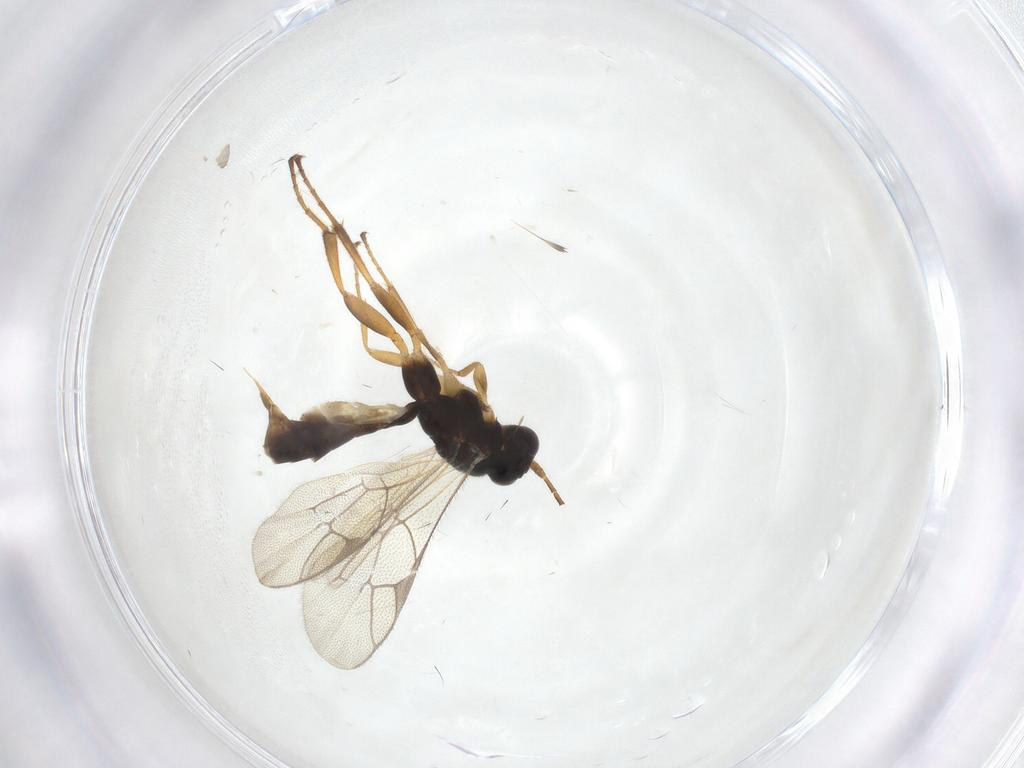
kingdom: Animalia
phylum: Arthropoda
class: Insecta
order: Hymenoptera
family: Ichneumonidae
